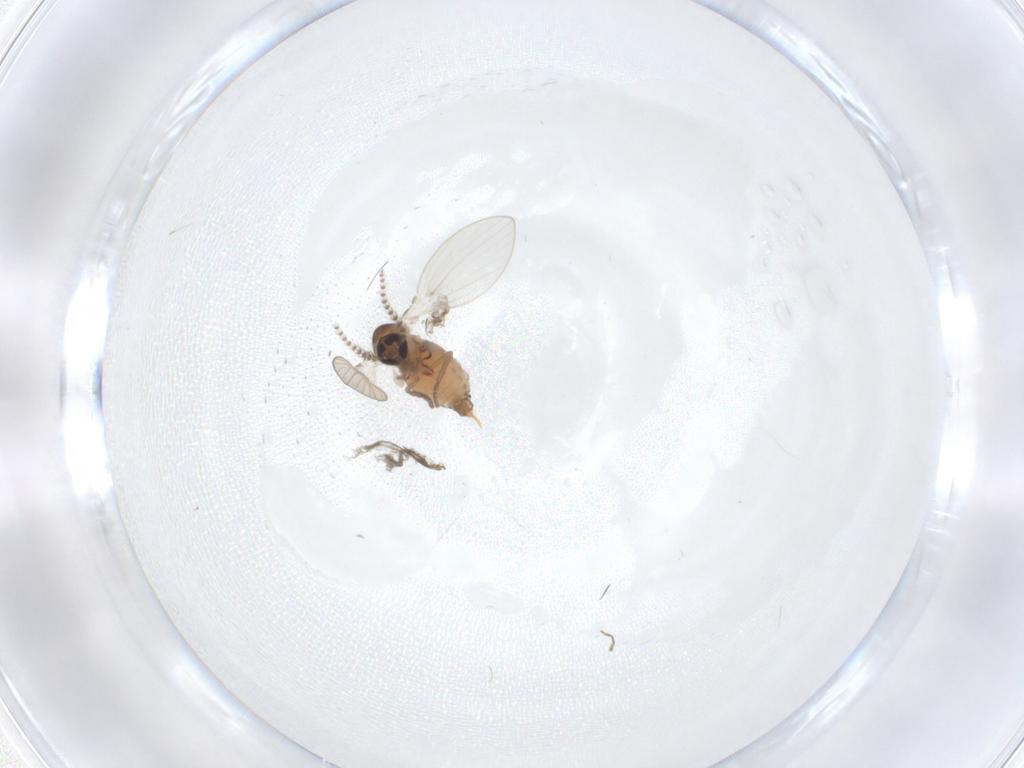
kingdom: Animalia
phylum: Arthropoda
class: Insecta
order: Diptera
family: Psychodidae
